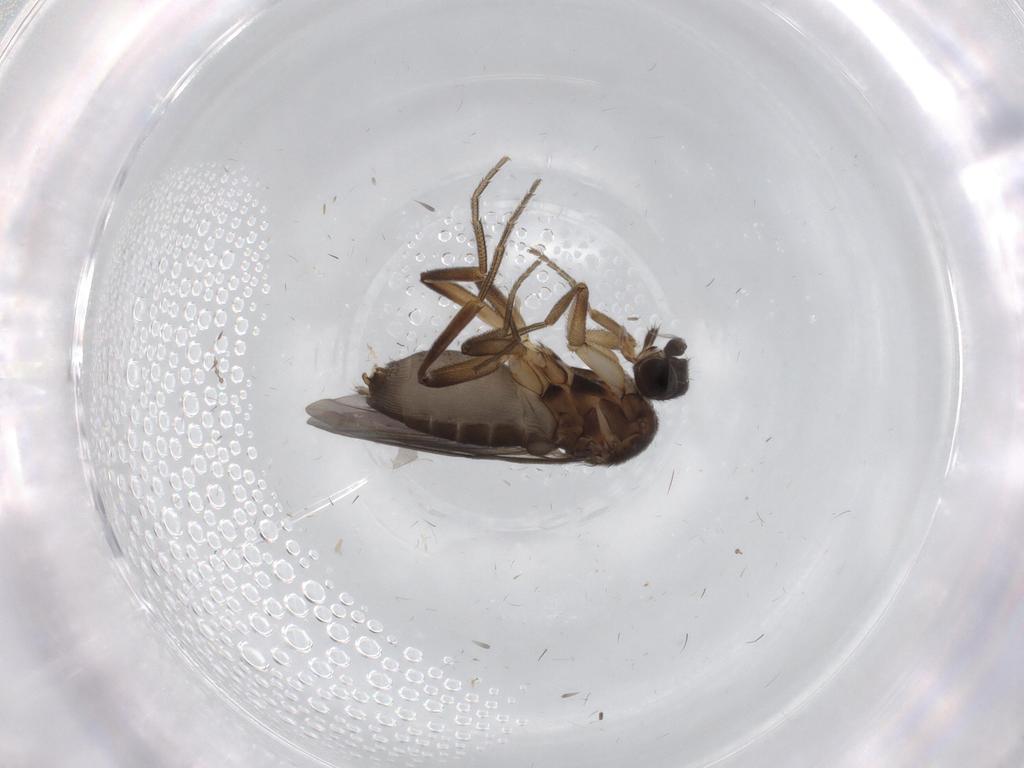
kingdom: Animalia
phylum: Arthropoda
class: Insecta
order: Diptera
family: Phoridae
